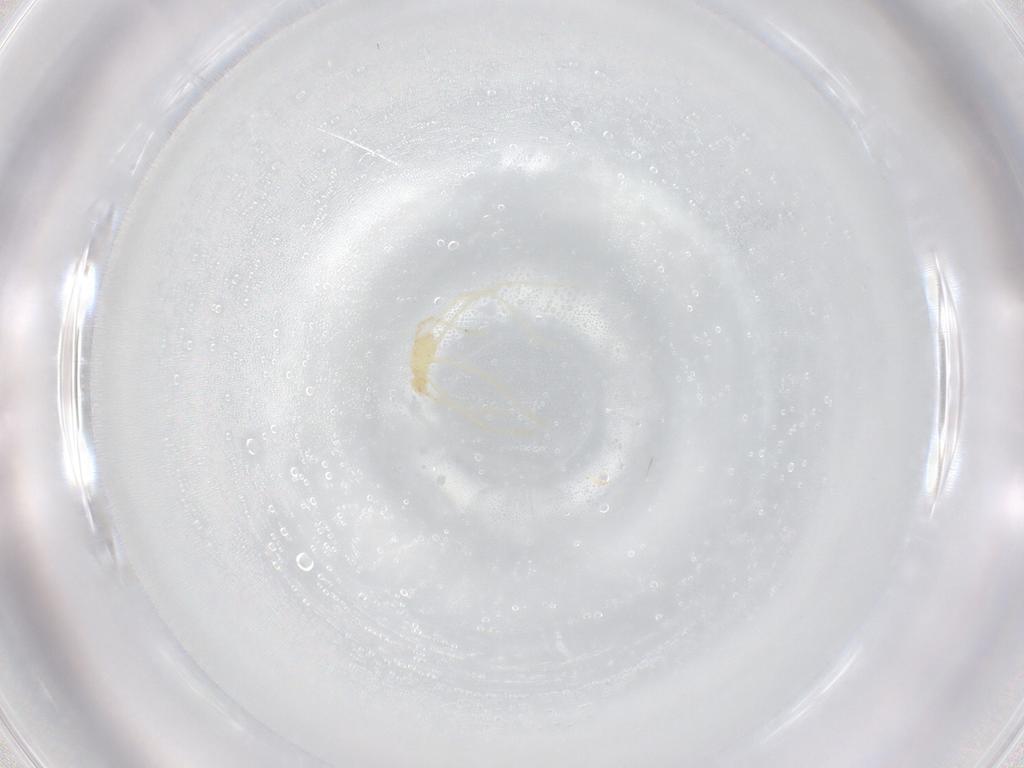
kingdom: Animalia
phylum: Arthropoda
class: Arachnida
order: Trombidiformes
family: Erythraeidae
